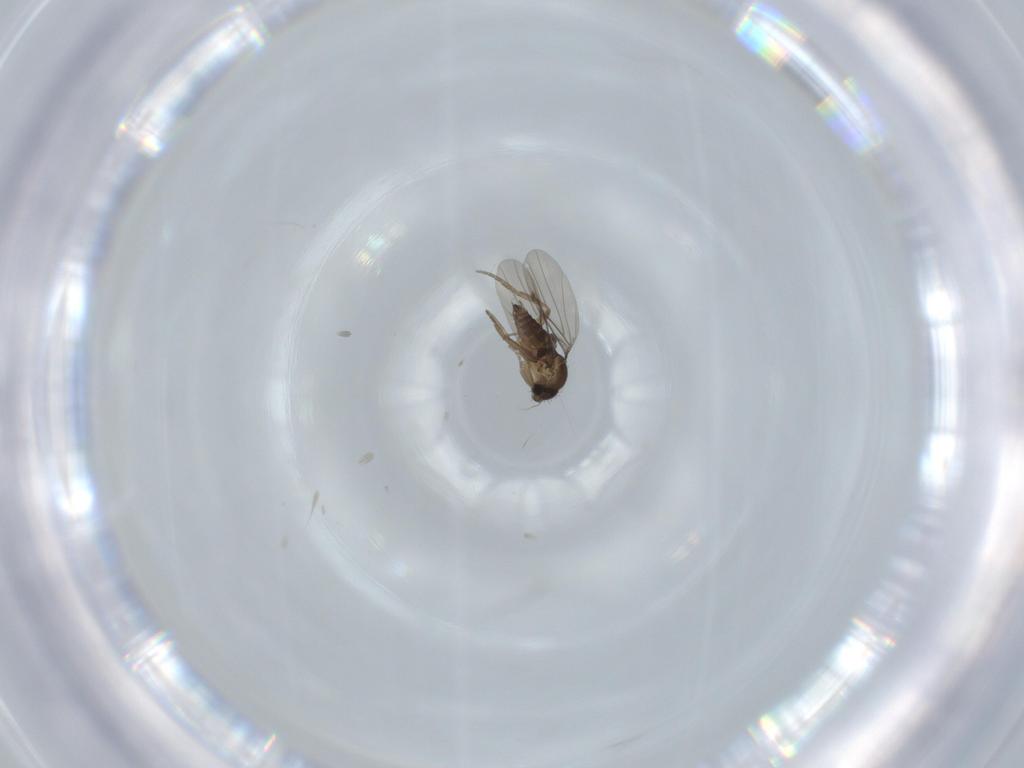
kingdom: Animalia
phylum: Arthropoda
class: Insecta
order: Diptera
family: Phoridae
